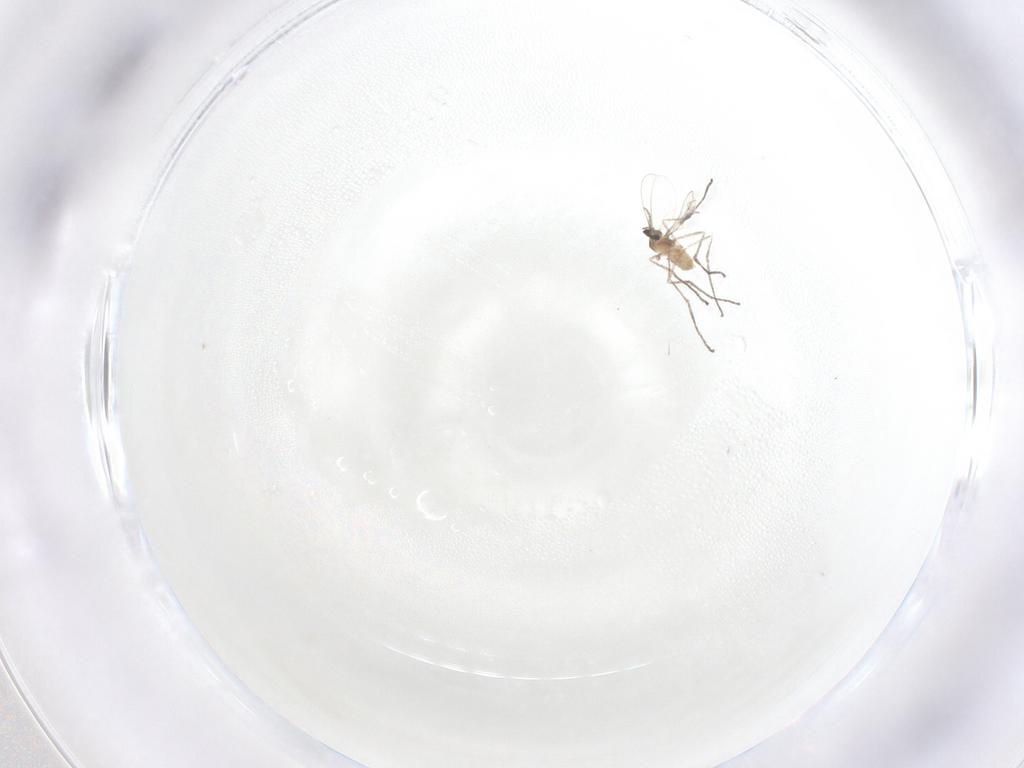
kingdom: Animalia
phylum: Arthropoda
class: Insecta
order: Diptera
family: Cecidomyiidae
